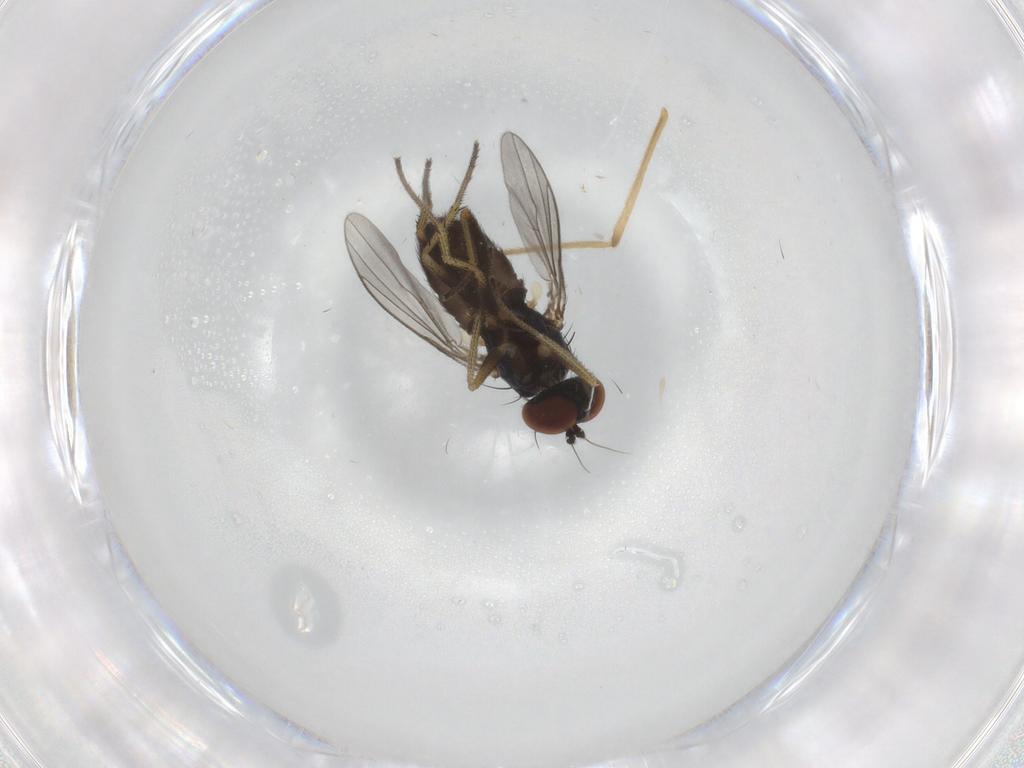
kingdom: Animalia
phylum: Arthropoda
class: Insecta
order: Diptera
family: Chironomidae
